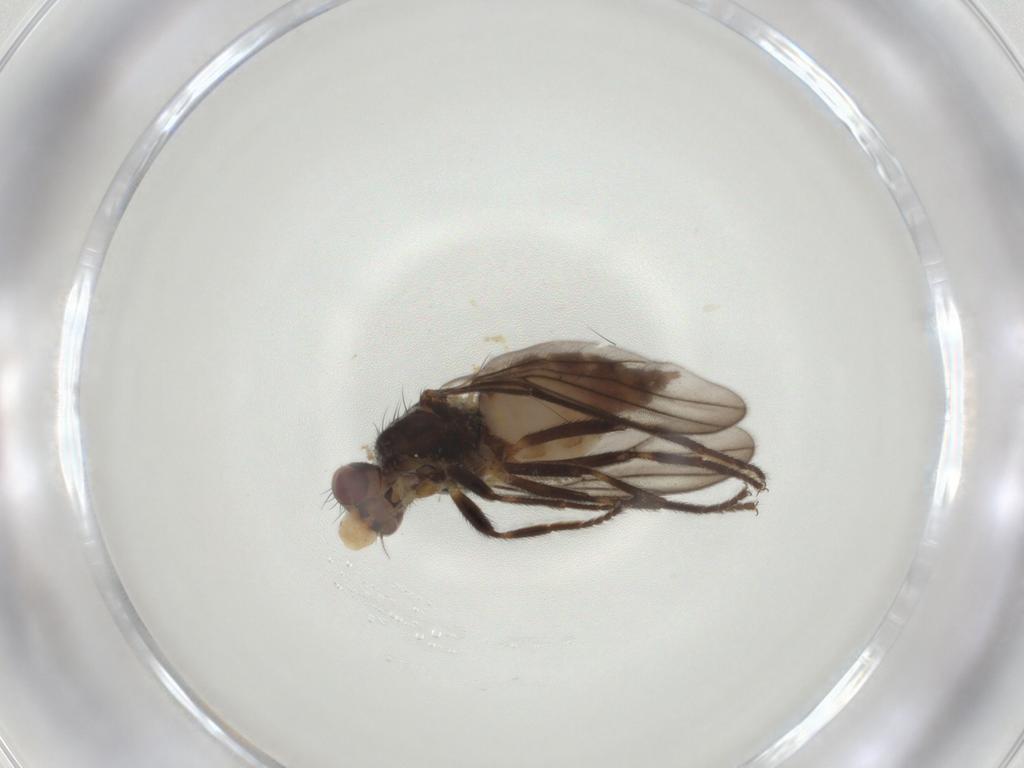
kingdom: Animalia
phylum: Arthropoda
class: Insecta
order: Diptera
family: Chloropidae
